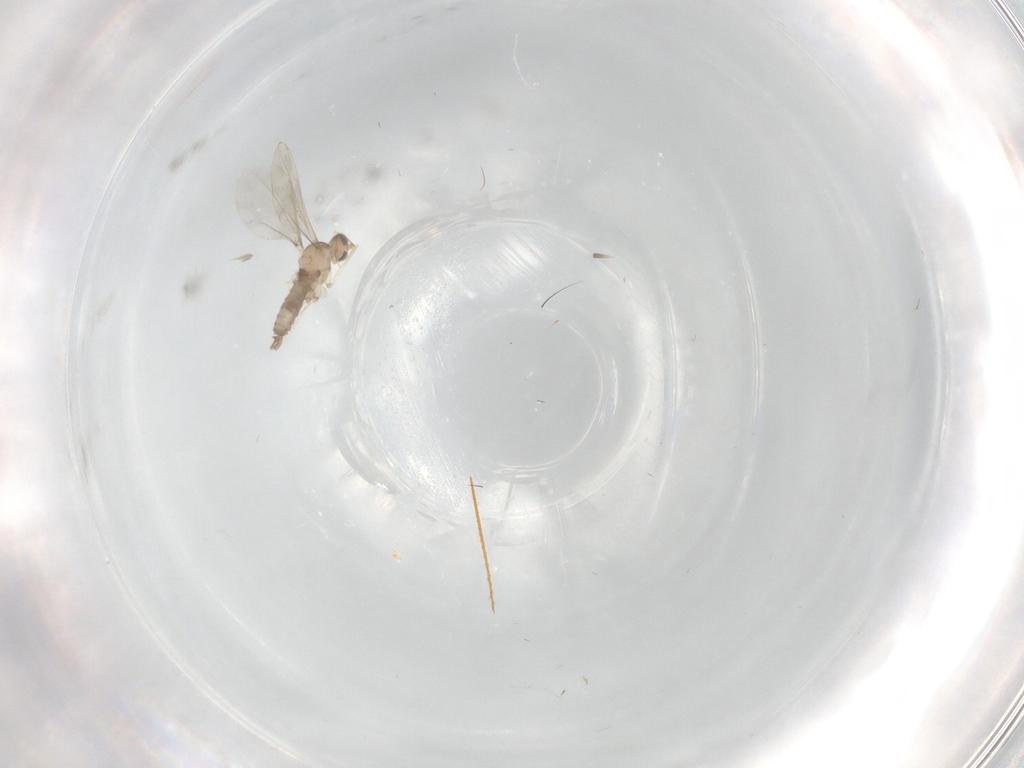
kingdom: Animalia
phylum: Arthropoda
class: Insecta
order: Diptera
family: Cecidomyiidae
